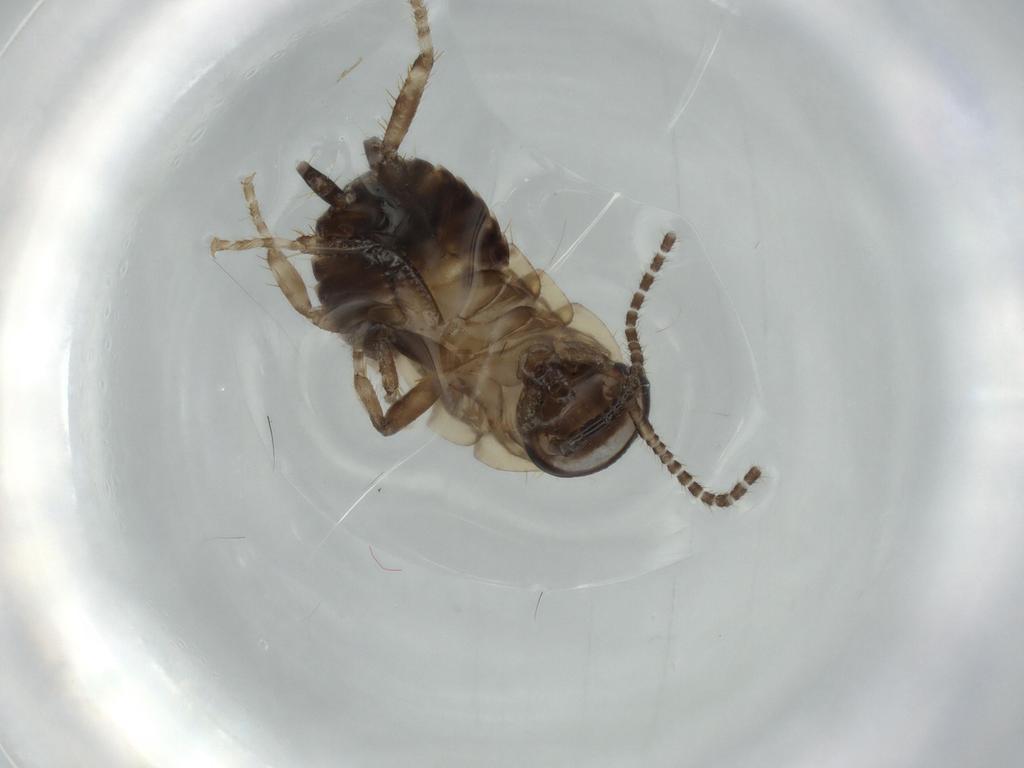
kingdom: Animalia
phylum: Arthropoda
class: Insecta
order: Blattodea
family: Ectobiidae
